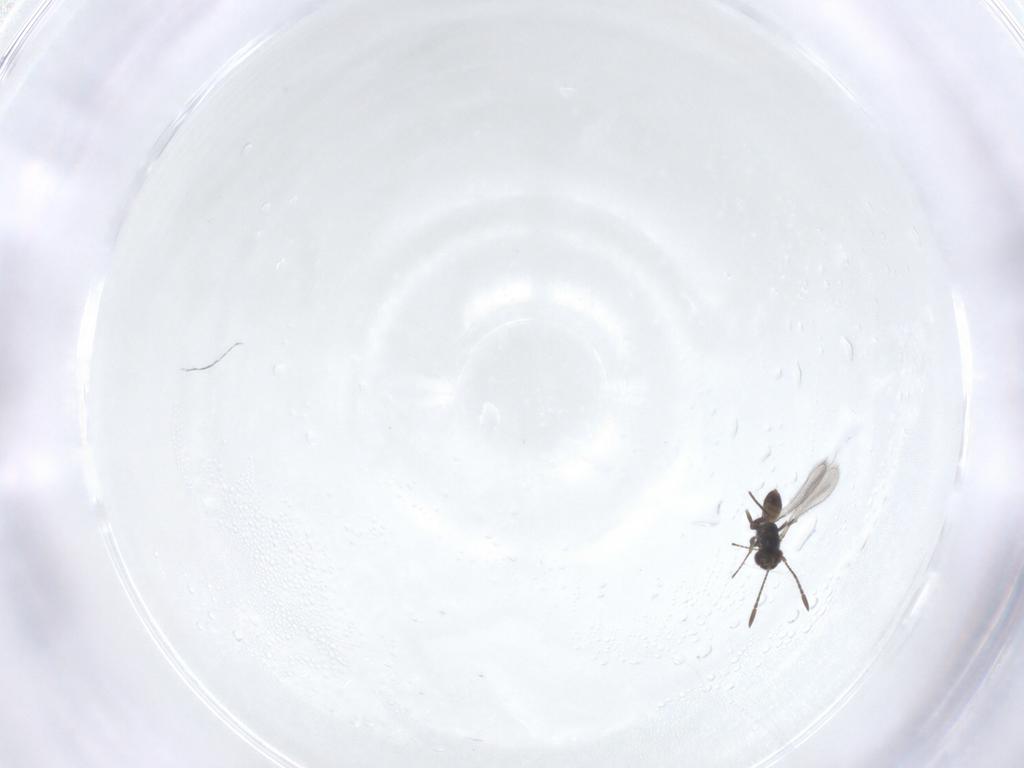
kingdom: Animalia
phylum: Arthropoda
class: Insecta
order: Hymenoptera
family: Mymaridae
